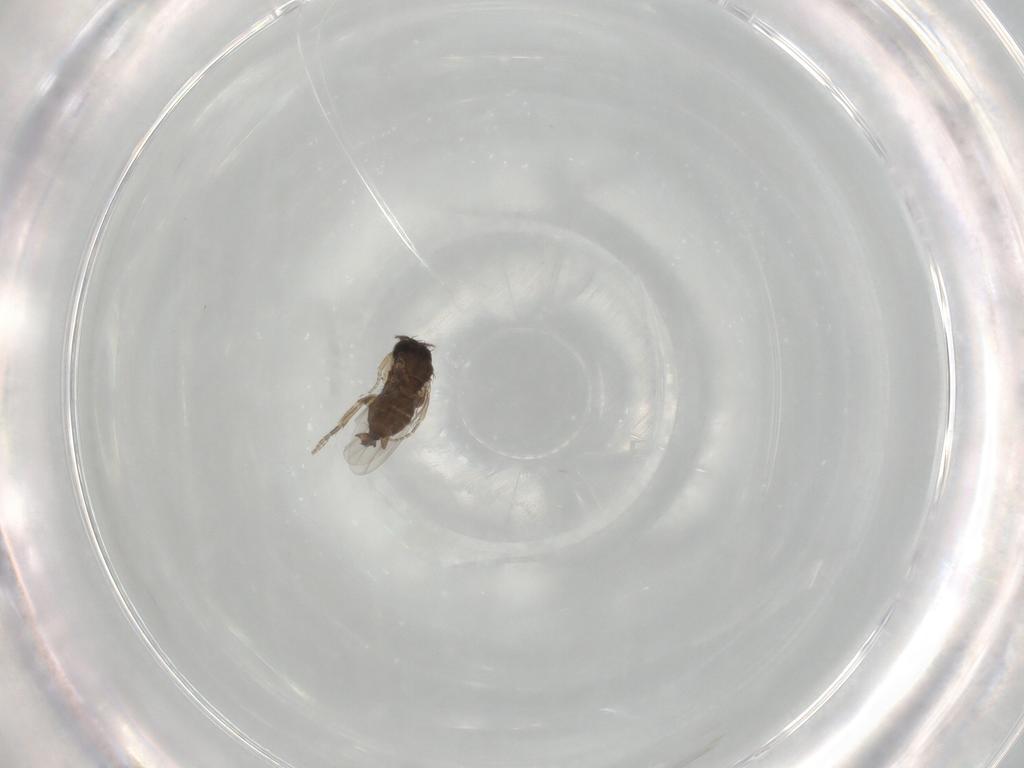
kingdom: Animalia
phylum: Arthropoda
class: Insecta
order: Diptera
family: Phoridae
